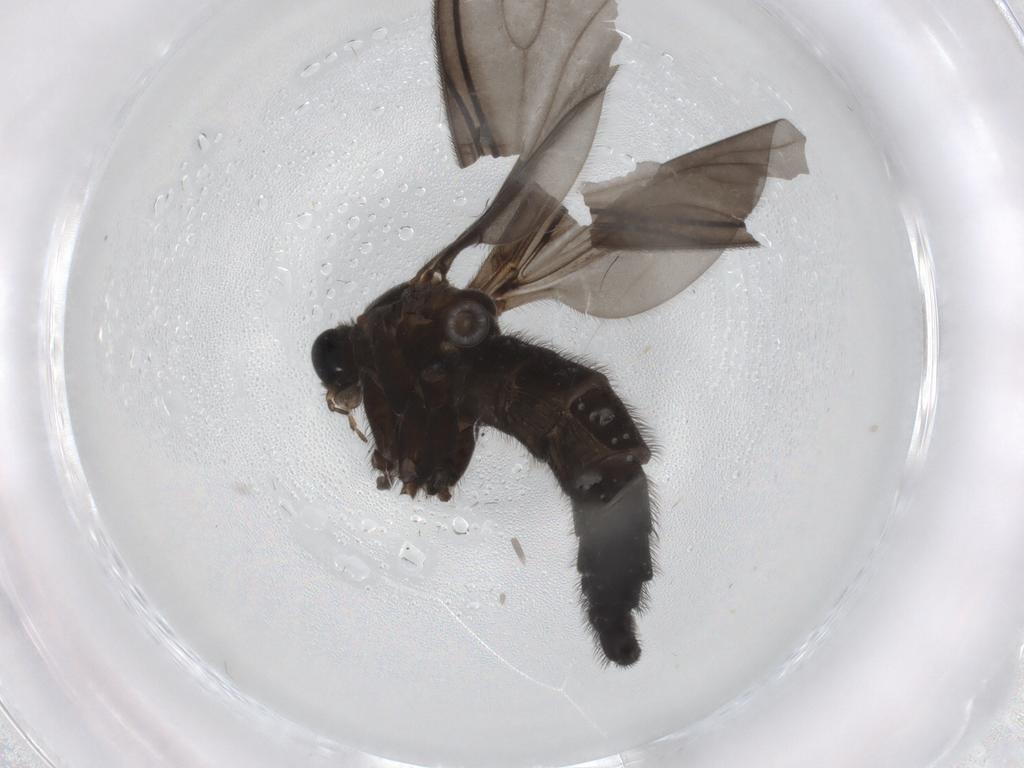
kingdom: Animalia
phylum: Arthropoda
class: Insecta
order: Diptera
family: Sciaridae
